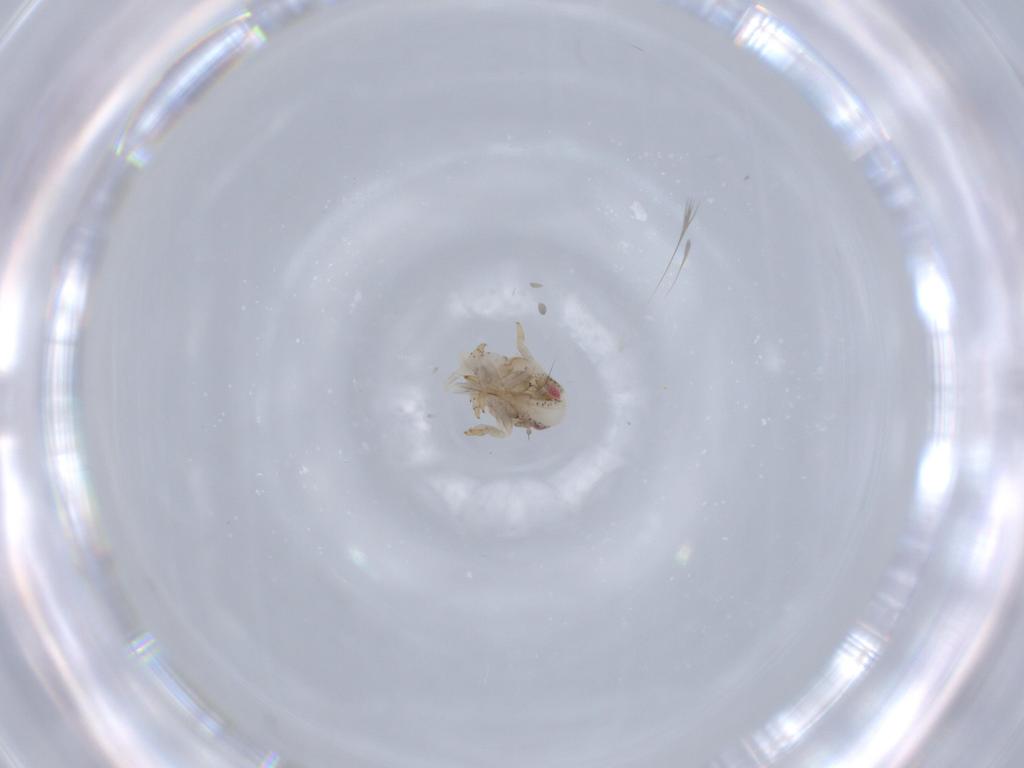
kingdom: Animalia
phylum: Arthropoda
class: Insecta
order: Hemiptera
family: Acanaloniidae
